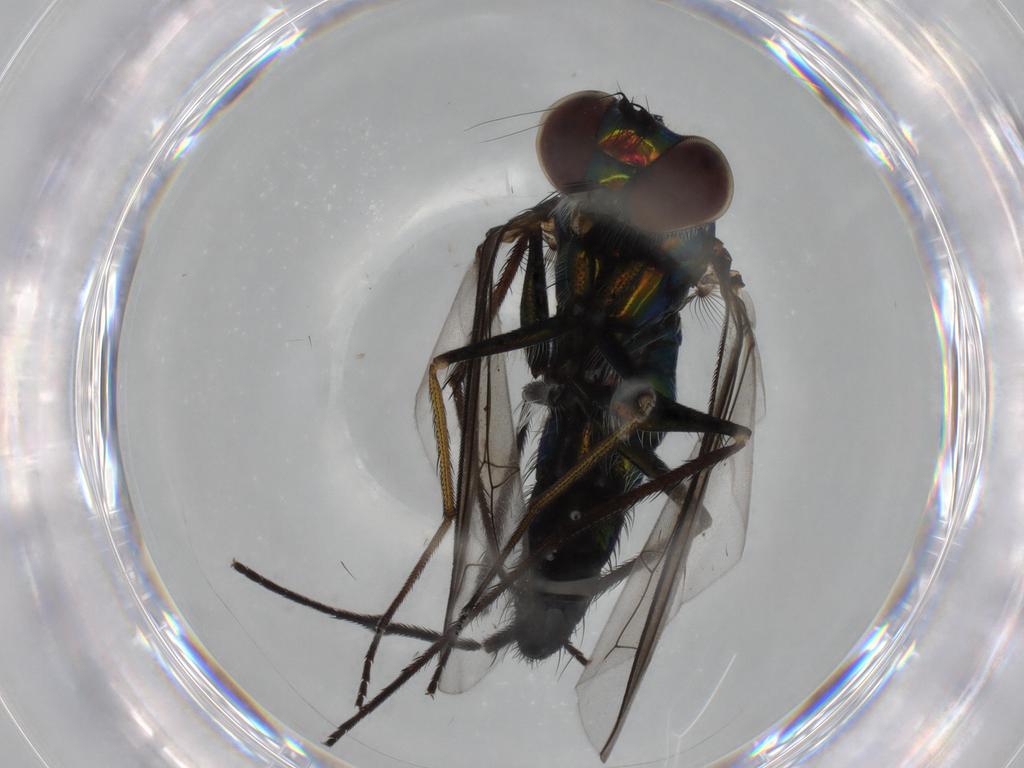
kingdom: Animalia
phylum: Arthropoda
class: Insecta
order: Diptera
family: Ephydridae
